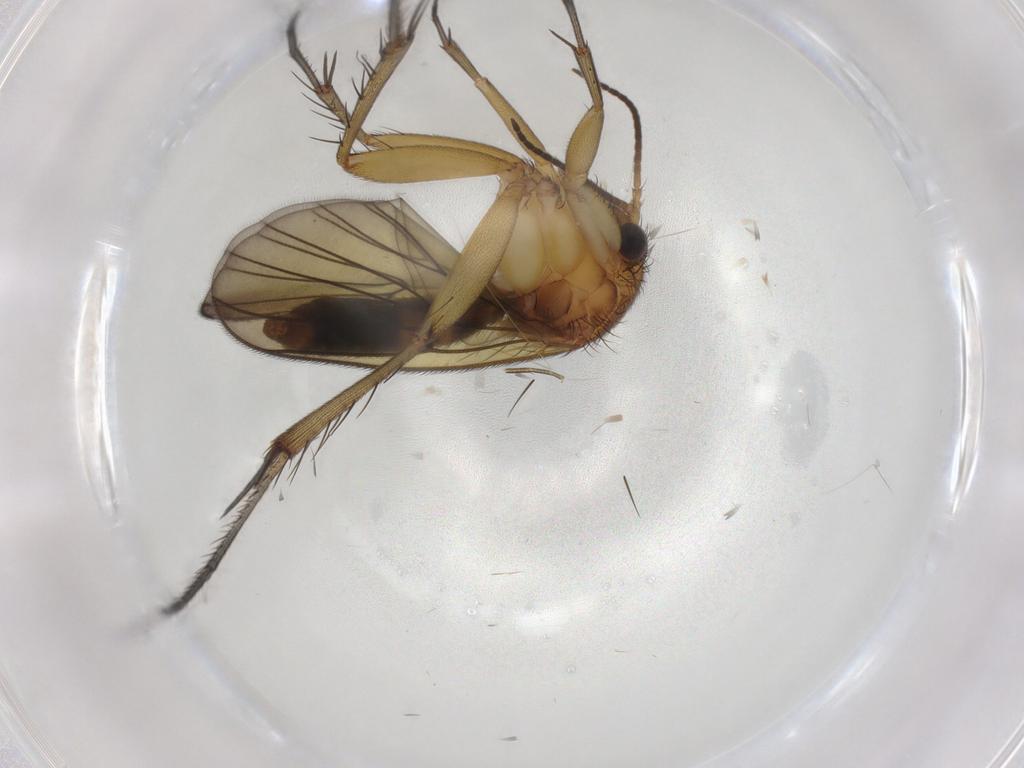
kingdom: Animalia
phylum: Arthropoda
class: Insecta
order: Diptera
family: Mycetophilidae
